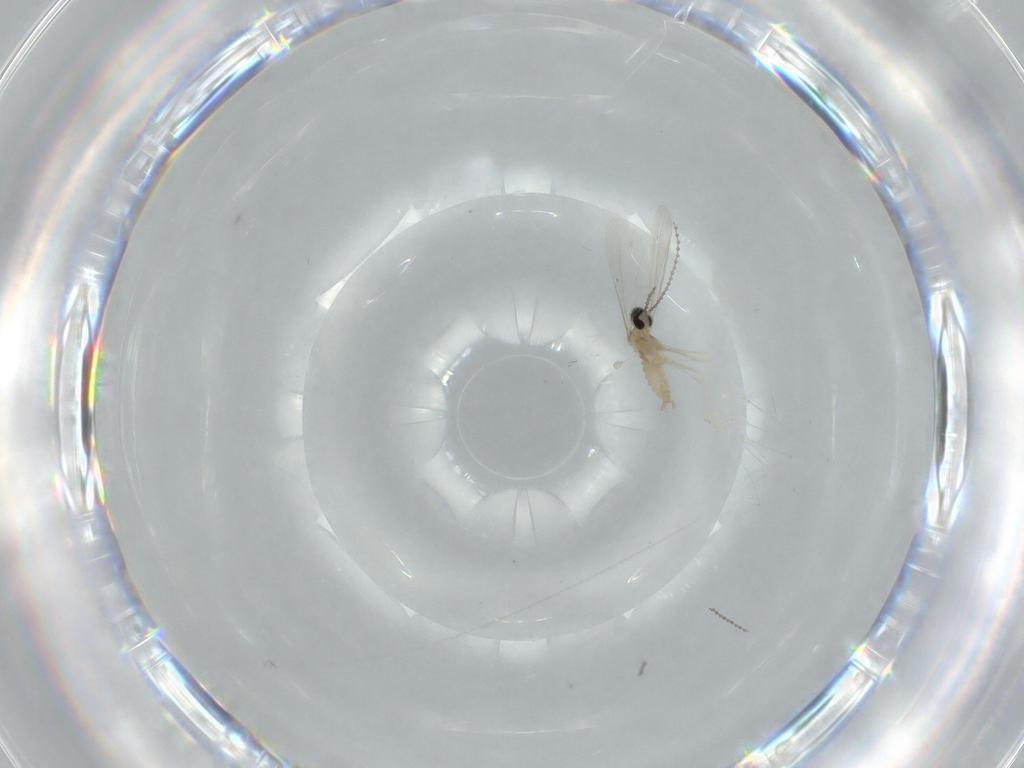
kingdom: Animalia
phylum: Arthropoda
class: Insecta
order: Diptera
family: Cecidomyiidae
